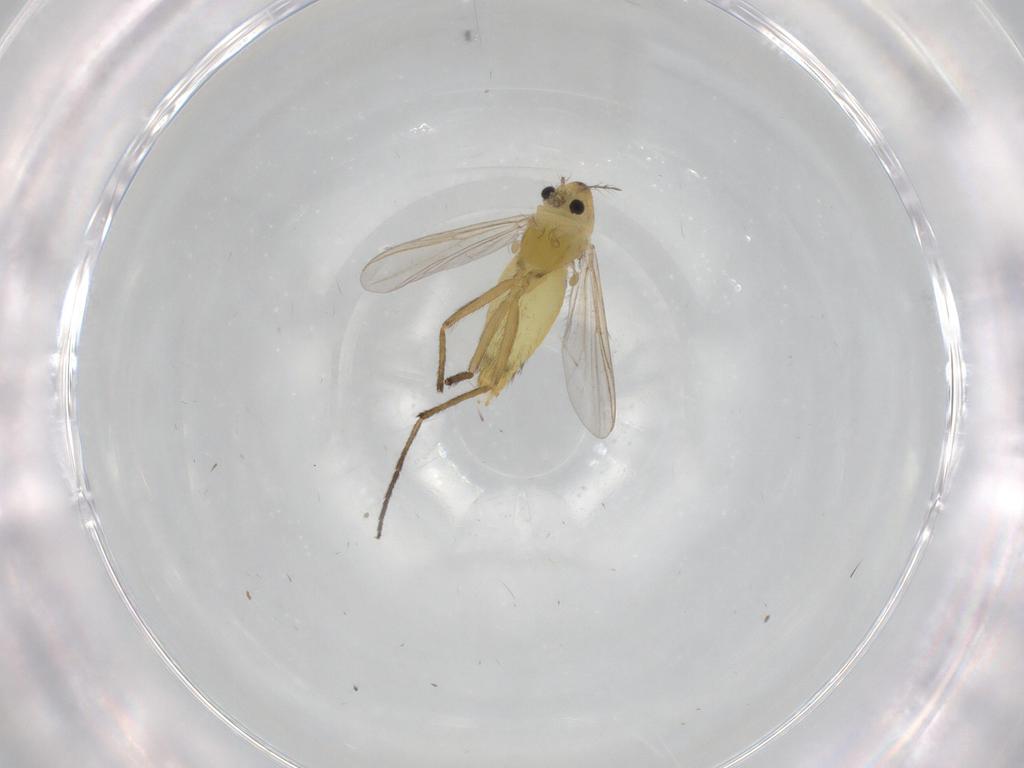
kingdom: Animalia
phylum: Arthropoda
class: Insecta
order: Diptera
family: Chironomidae
